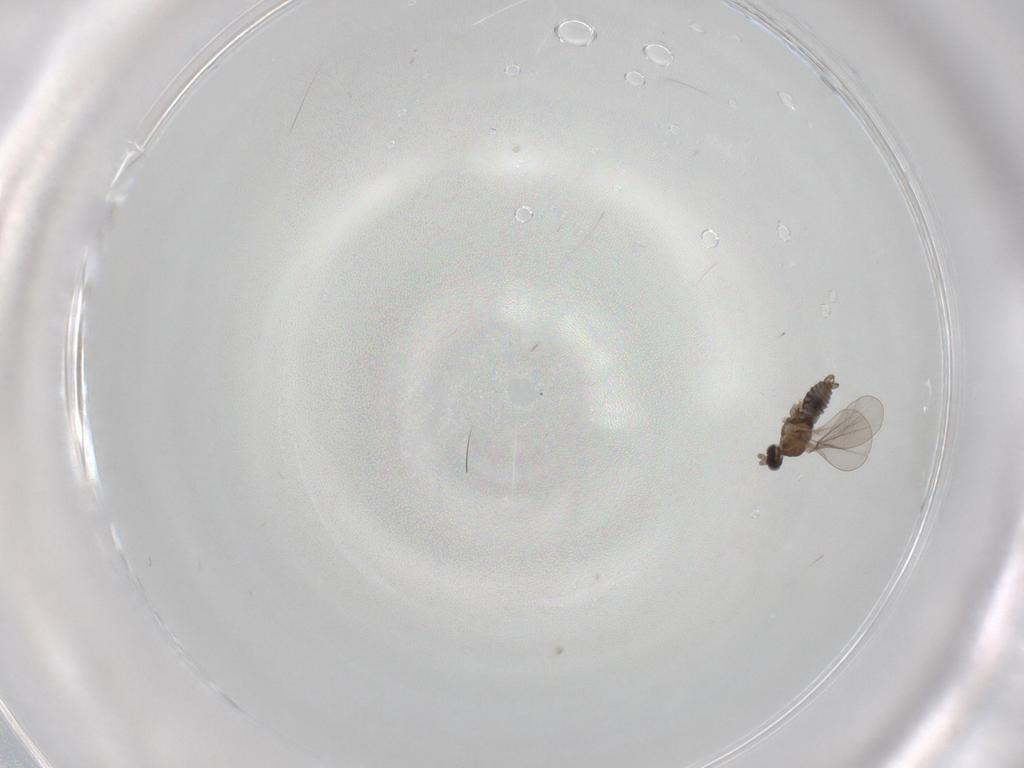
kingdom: Animalia
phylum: Arthropoda
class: Insecta
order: Diptera
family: Cecidomyiidae
